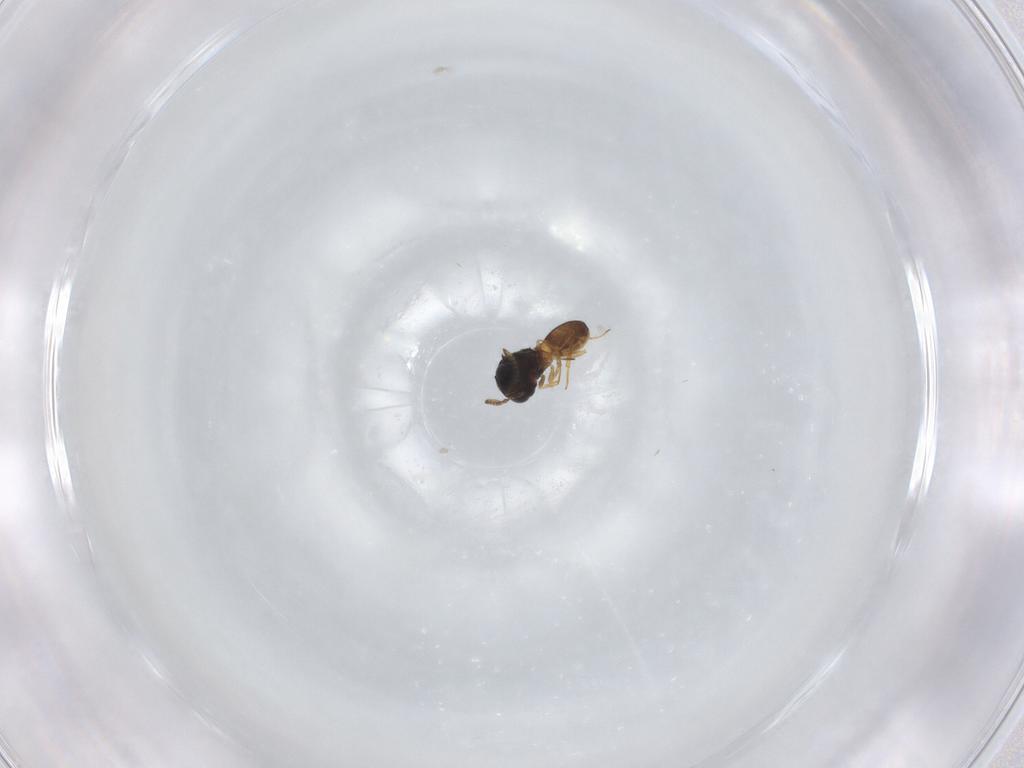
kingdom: Animalia
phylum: Arthropoda
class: Insecta
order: Hymenoptera
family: Scelionidae
